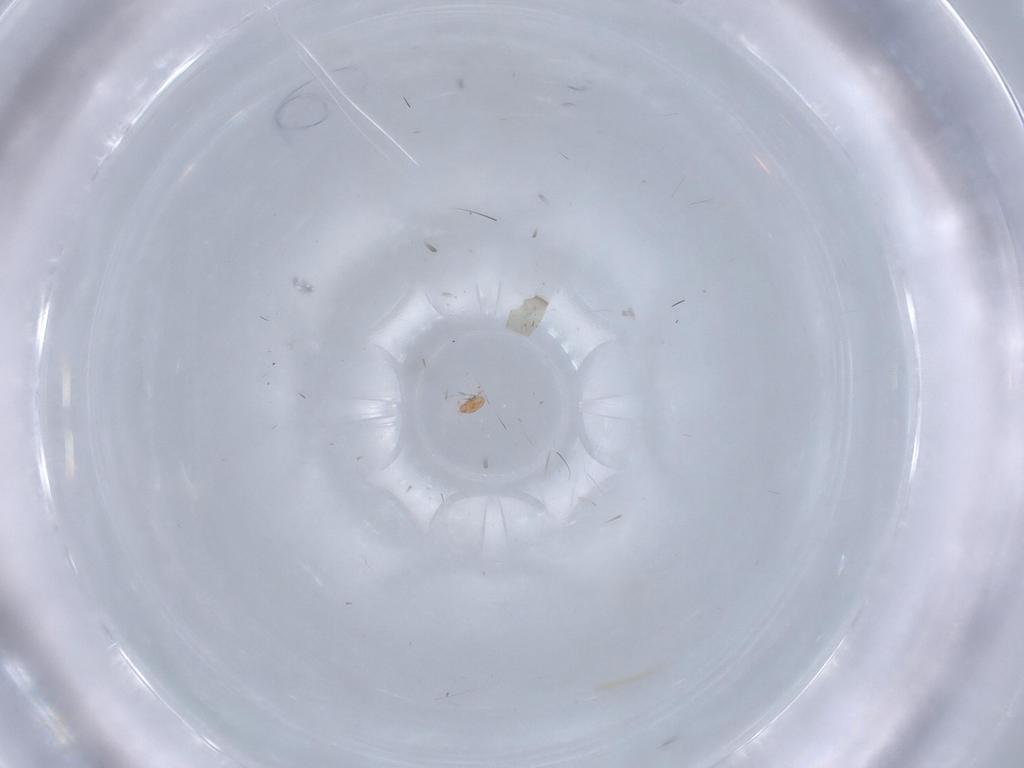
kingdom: Animalia
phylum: Arthropoda
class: Arachnida
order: Trombidiformes
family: Pygmephoridae
